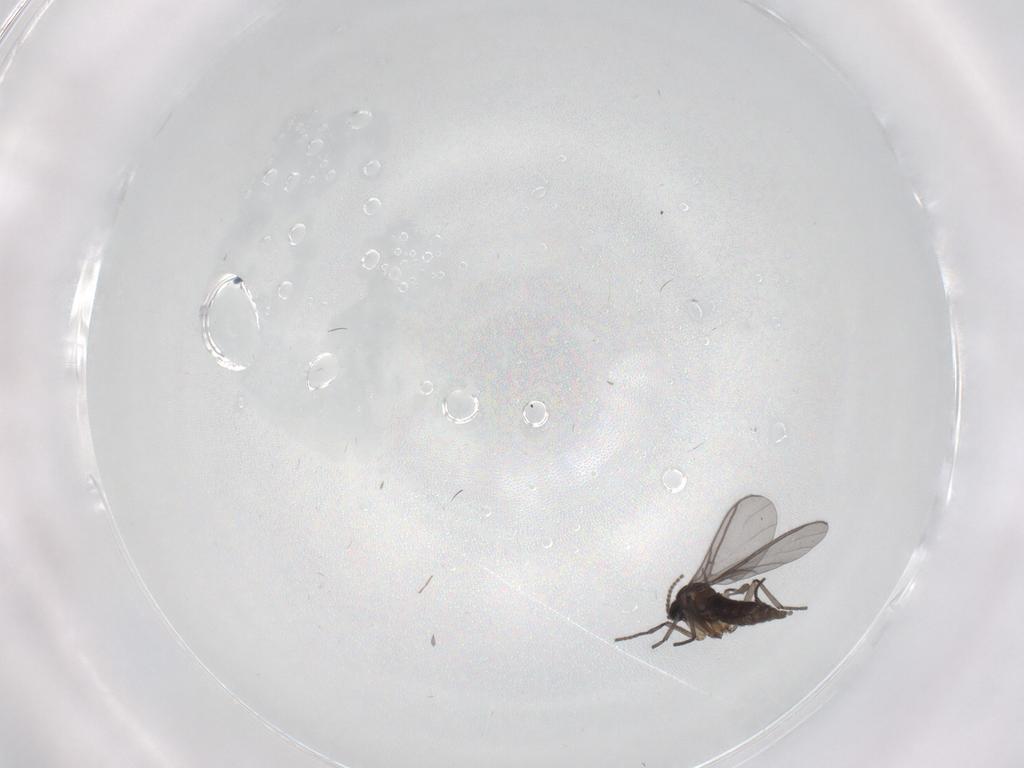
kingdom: Animalia
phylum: Arthropoda
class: Insecta
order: Diptera
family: Sciaridae
